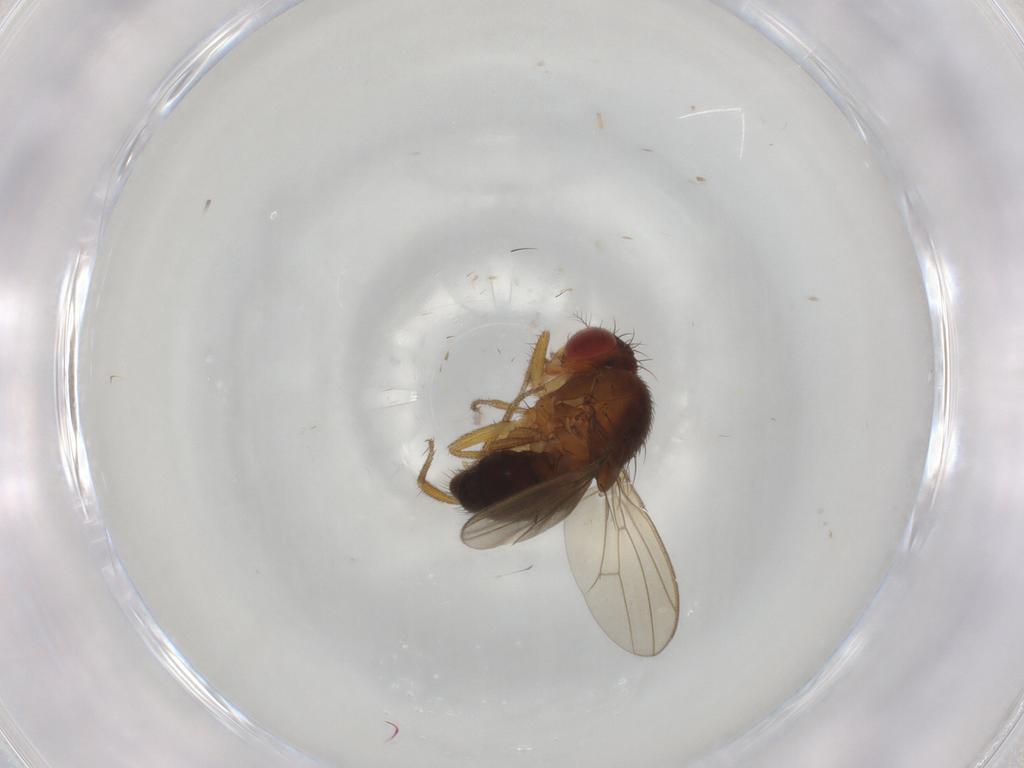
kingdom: Animalia
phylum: Arthropoda
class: Insecta
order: Diptera
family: Drosophilidae
